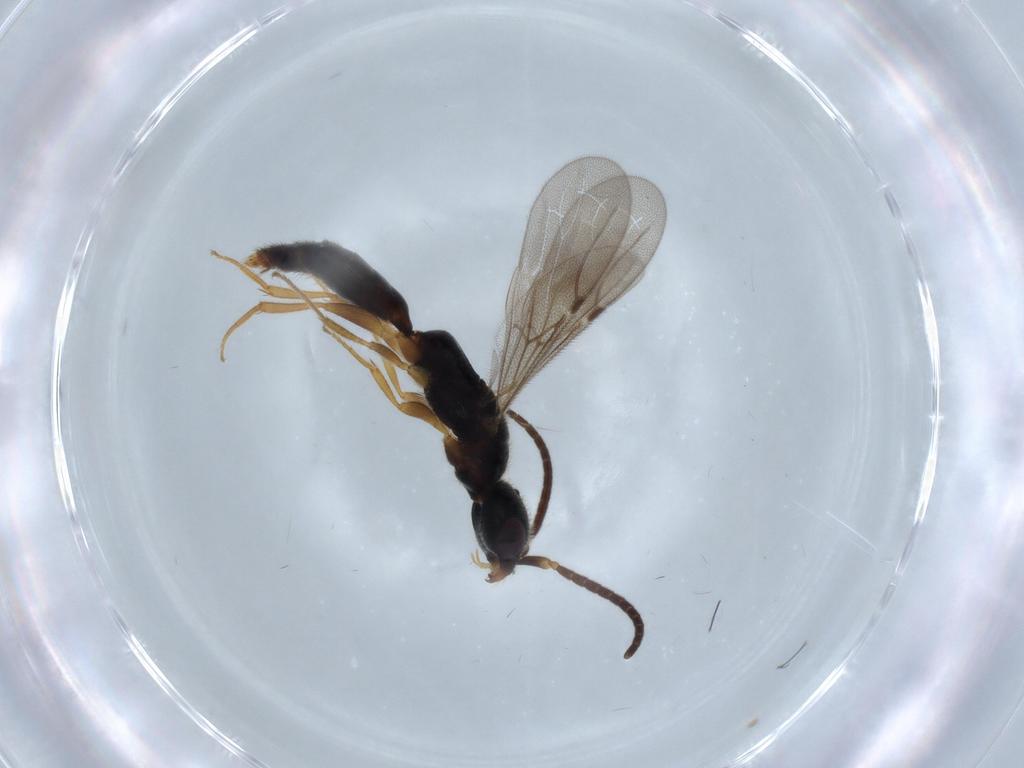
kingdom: Animalia
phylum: Arthropoda
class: Insecta
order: Hymenoptera
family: Bethylidae
